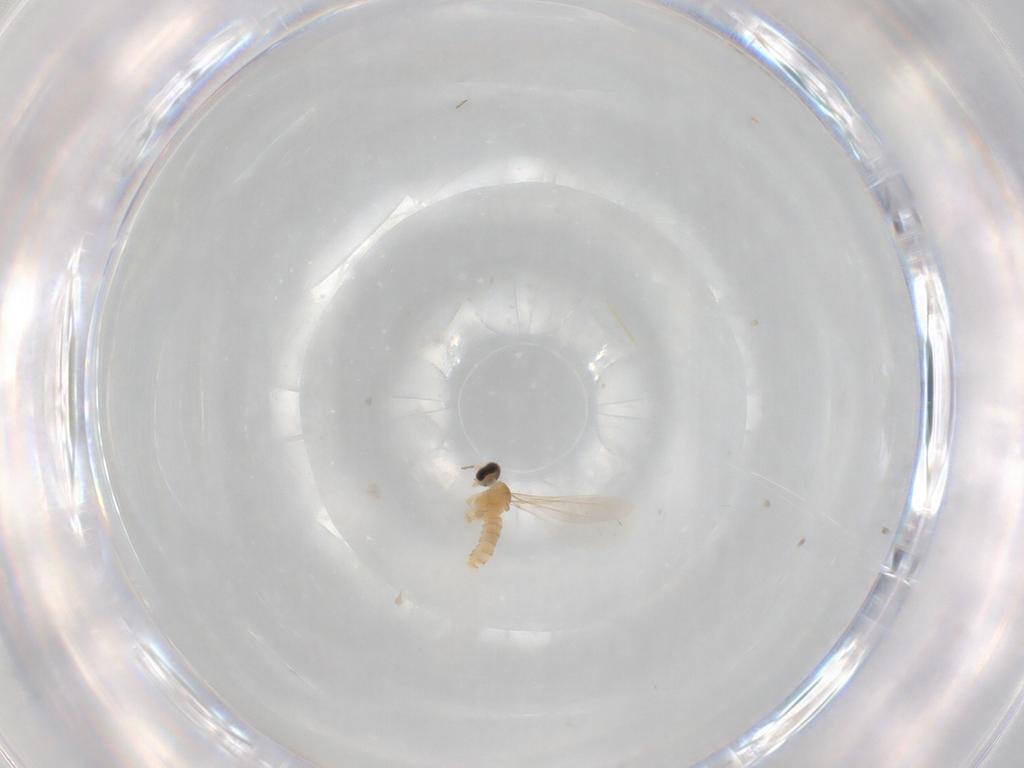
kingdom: Animalia
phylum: Arthropoda
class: Insecta
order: Diptera
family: Cecidomyiidae
